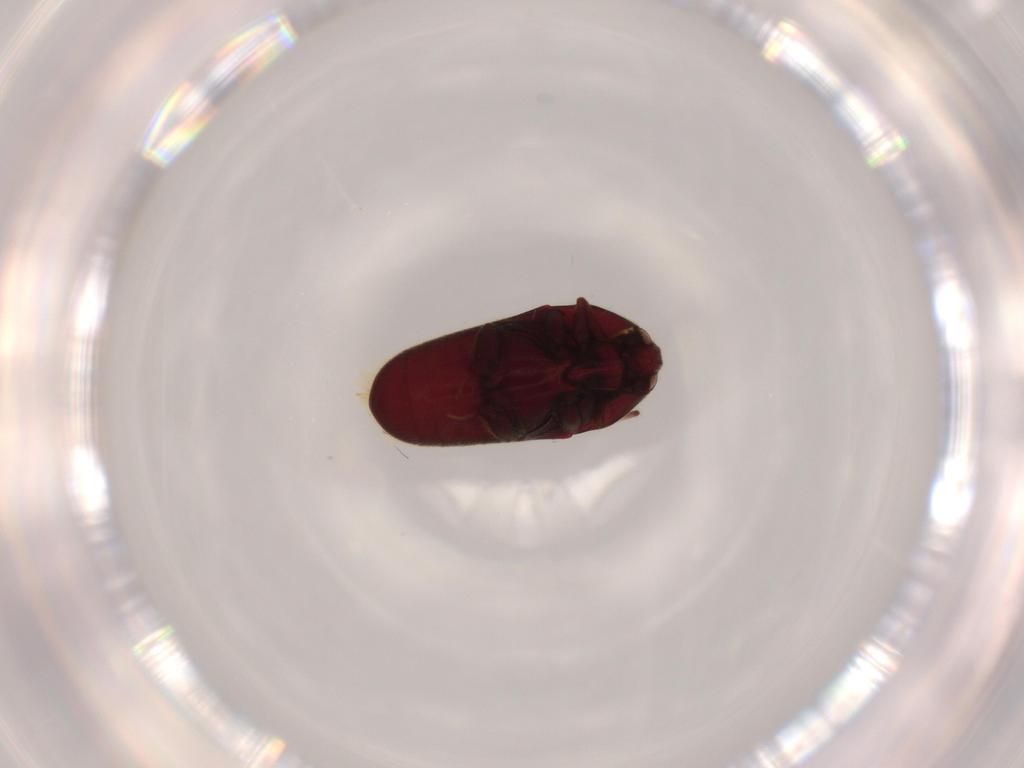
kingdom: Animalia
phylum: Arthropoda
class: Insecta
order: Coleoptera
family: Throscidae
